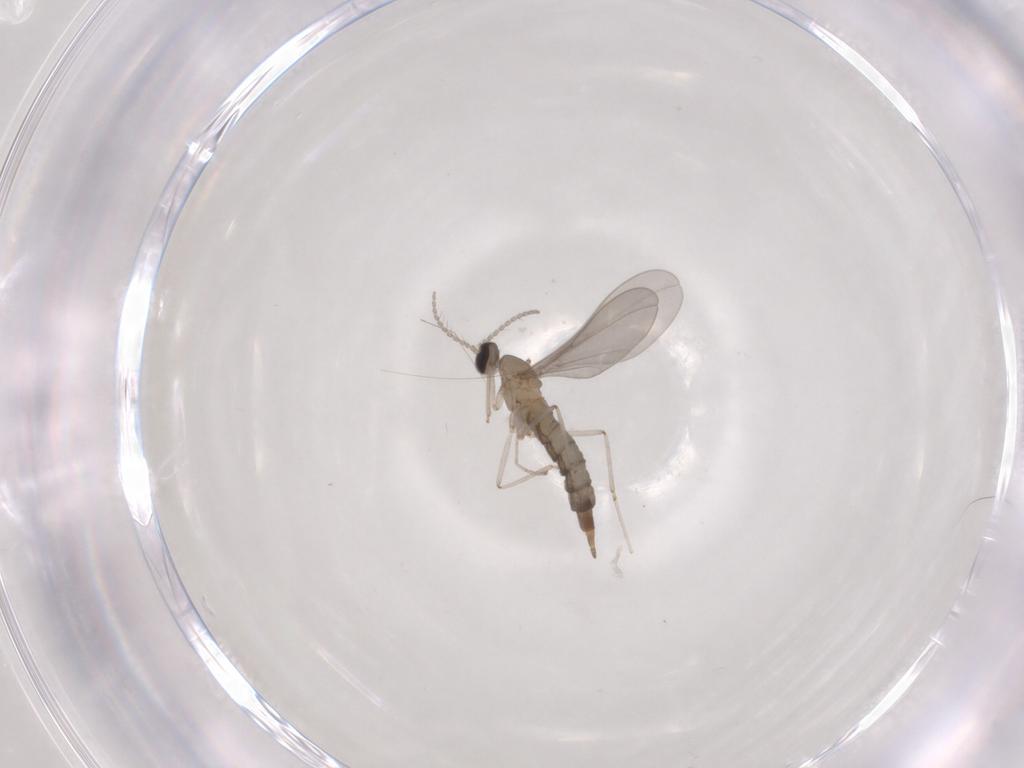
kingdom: Animalia
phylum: Arthropoda
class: Insecta
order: Diptera
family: Cecidomyiidae
